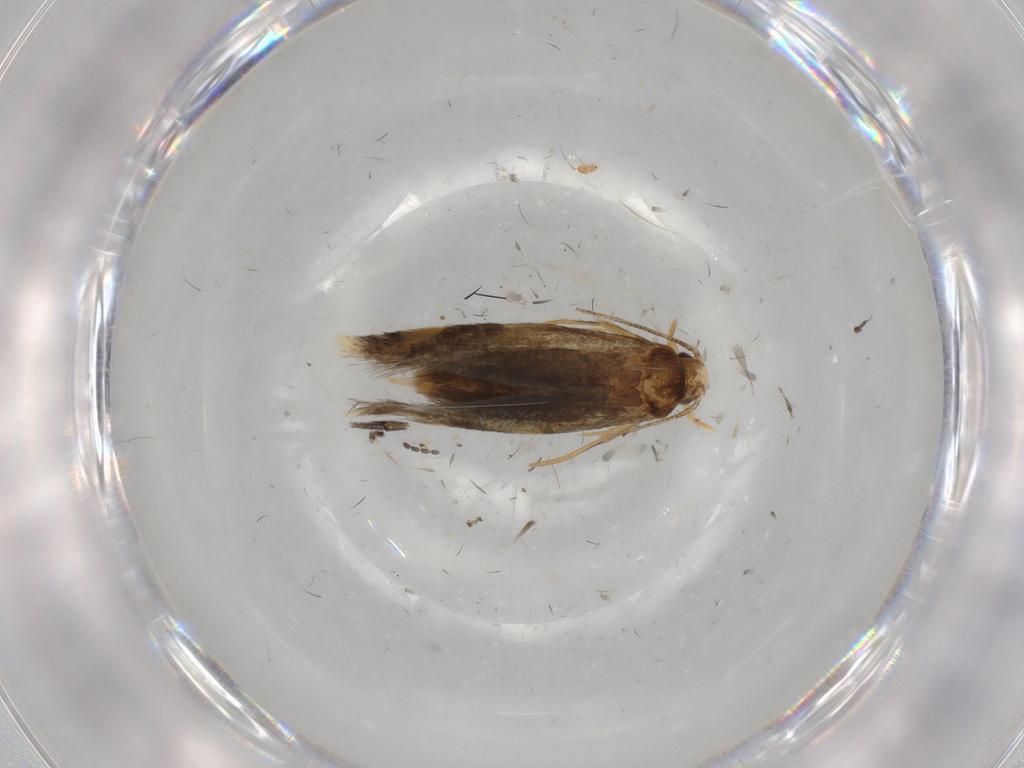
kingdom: Animalia
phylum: Arthropoda
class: Insecta
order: Lepidoptera
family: Tineidae
